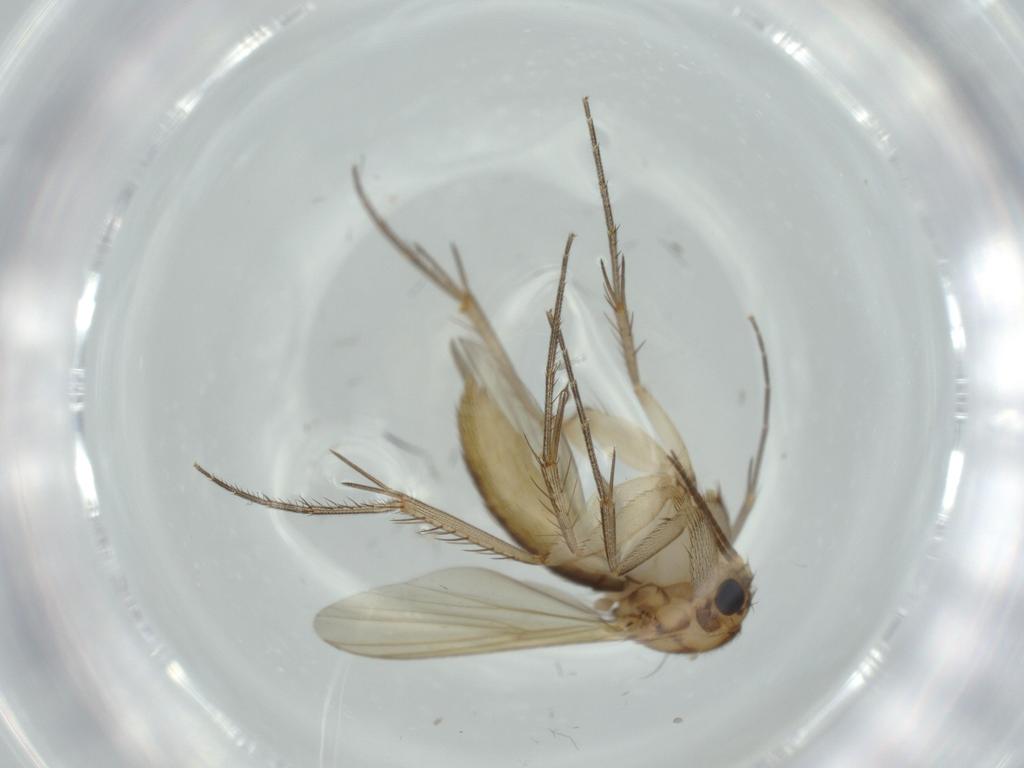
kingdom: Animalia
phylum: Arthropoda
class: Insecta
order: Diptera
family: Mycetophilidae
